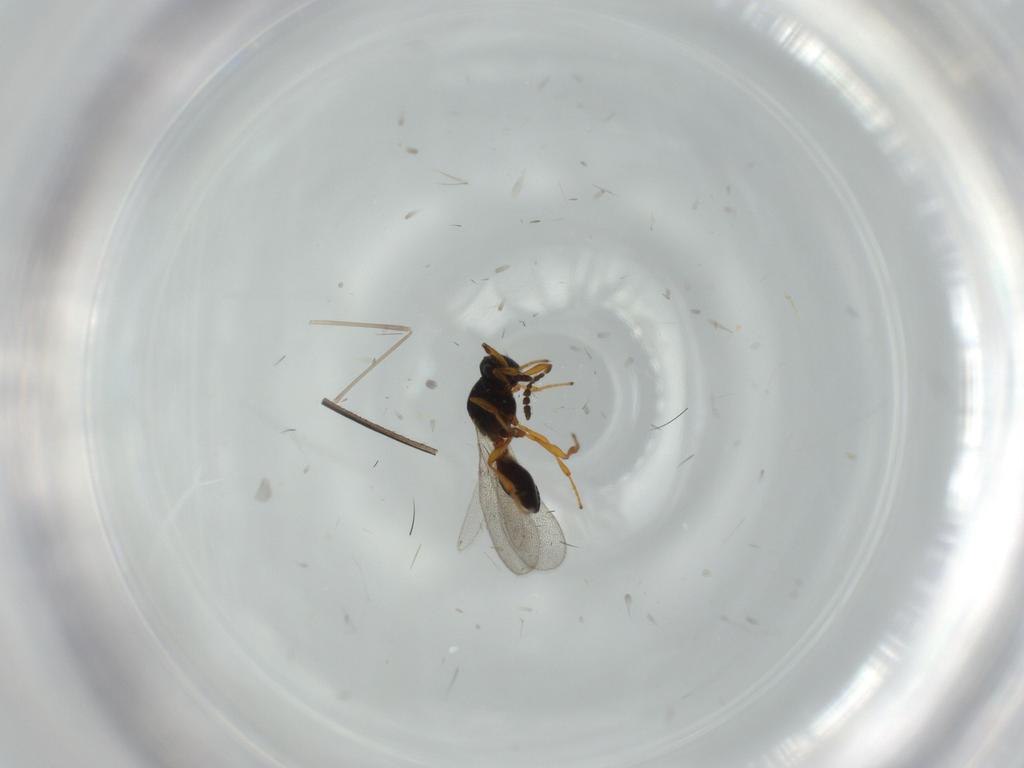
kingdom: Animalia
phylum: Arthropoda
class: Insecta
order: Hymenoptera
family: Platygastridae
